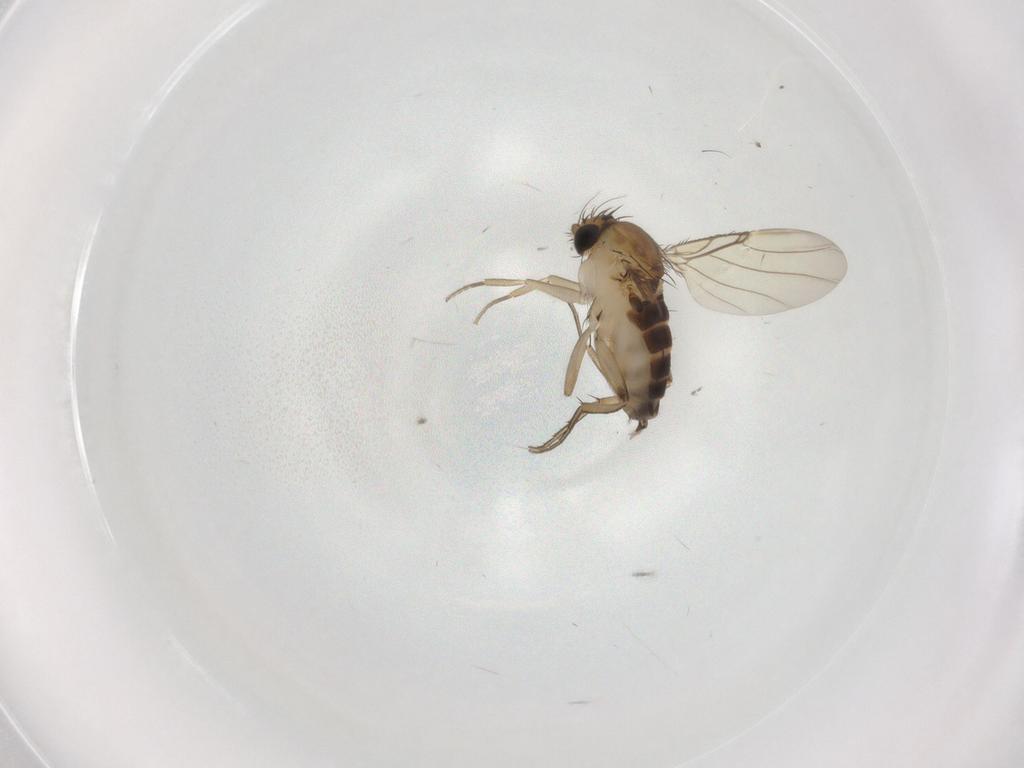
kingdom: Animalia
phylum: Arthropoda
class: Insecta
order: Diptera
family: Phoridae
